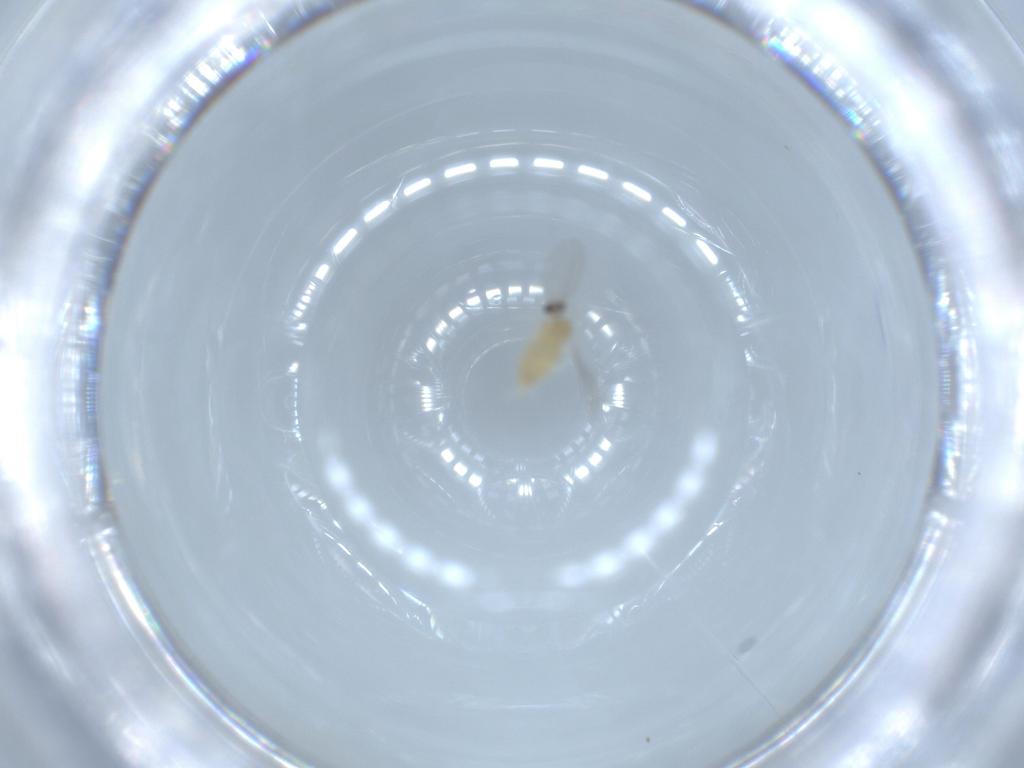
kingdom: Animalia
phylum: Arthropoda
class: Insecta
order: Diptera
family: Cecidomyiidae
